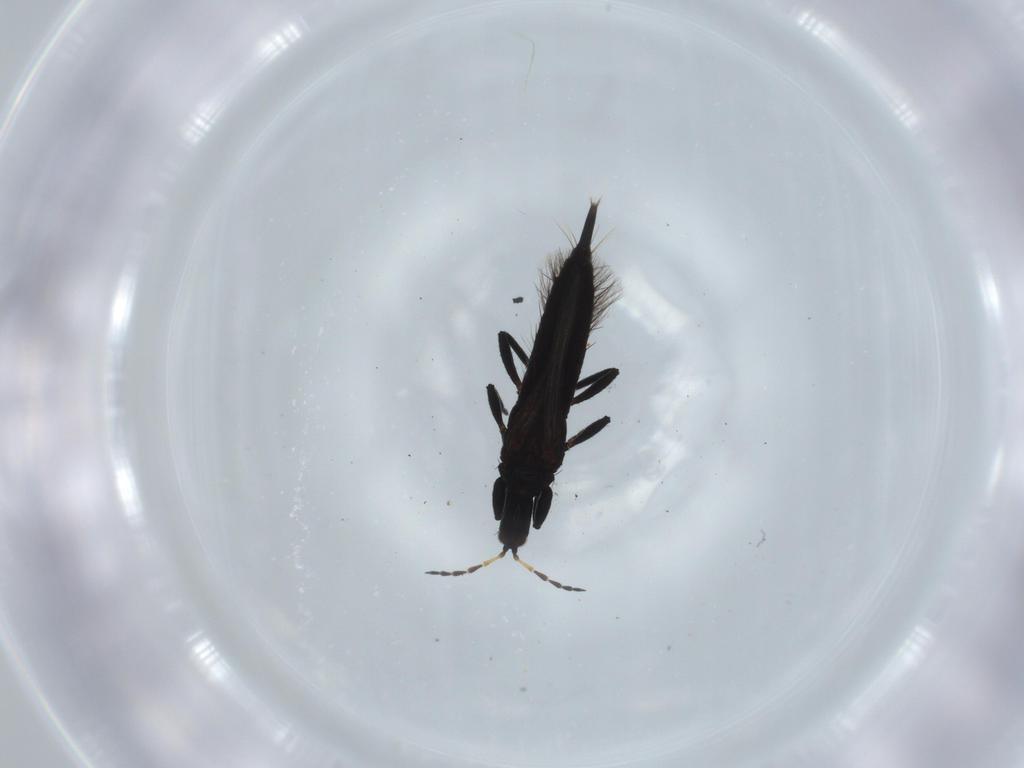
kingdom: Animalia
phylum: Arthropoda
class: Insecta
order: Thysanoptera
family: Phlaeothripidae
